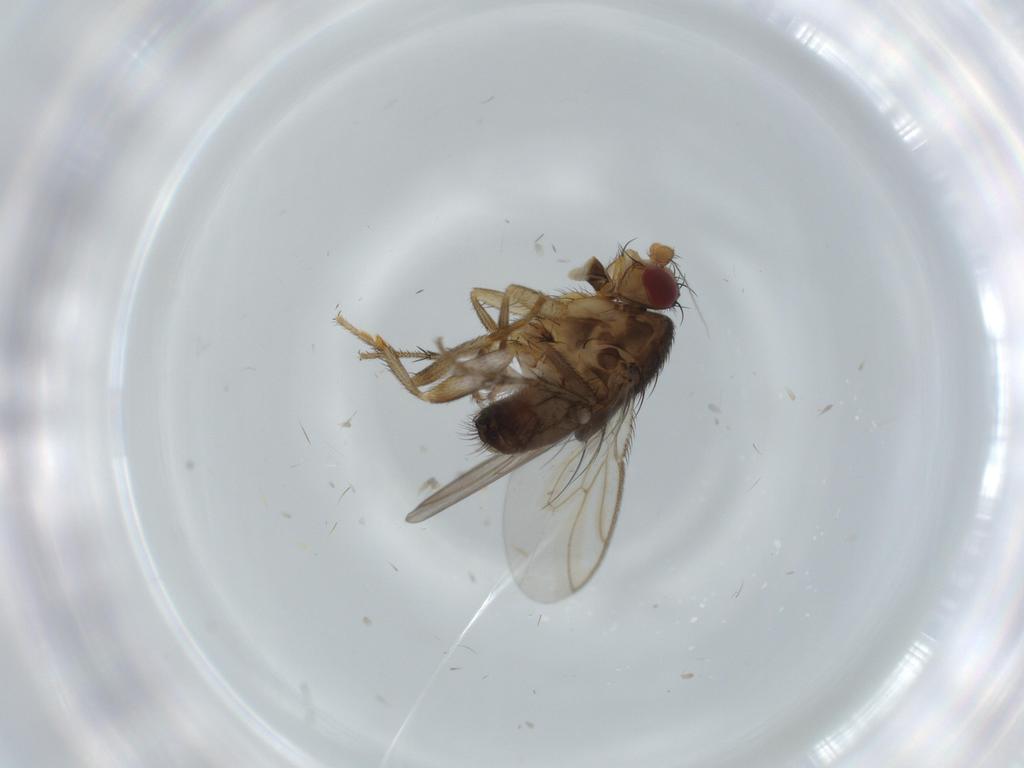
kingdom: Animalia
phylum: Arthropoda
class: Insecta
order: Diptera
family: Sphaeroceridae
